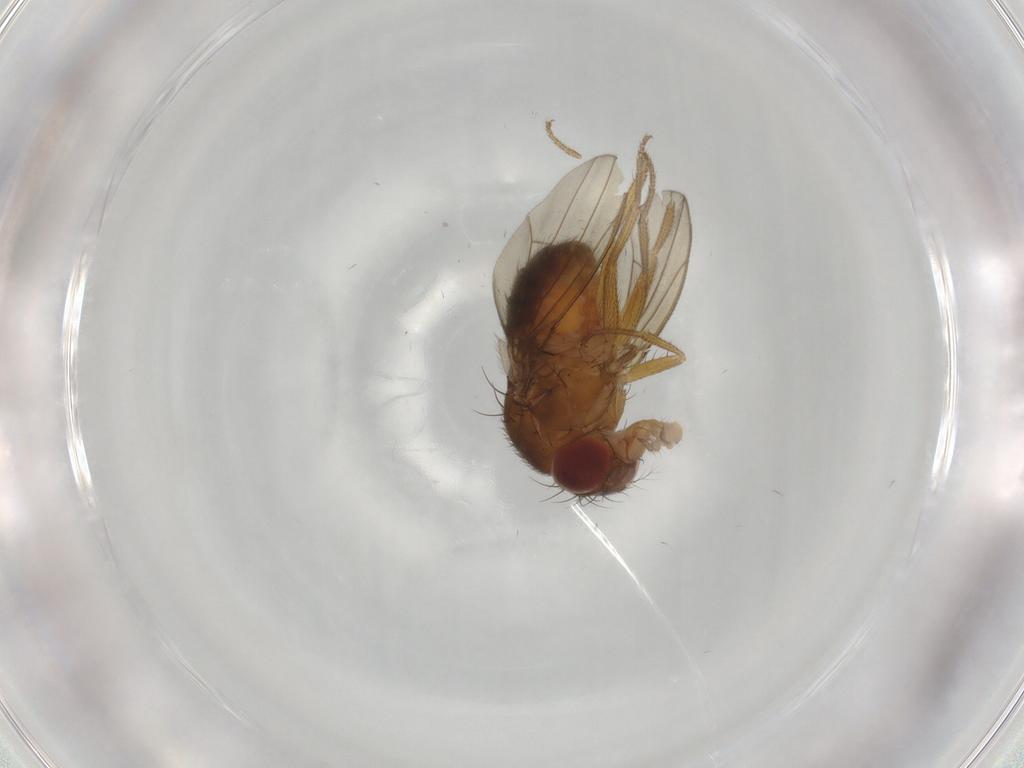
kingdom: Animalia
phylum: Arthropoda
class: Insecta
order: Diptera
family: Drosophilidae
